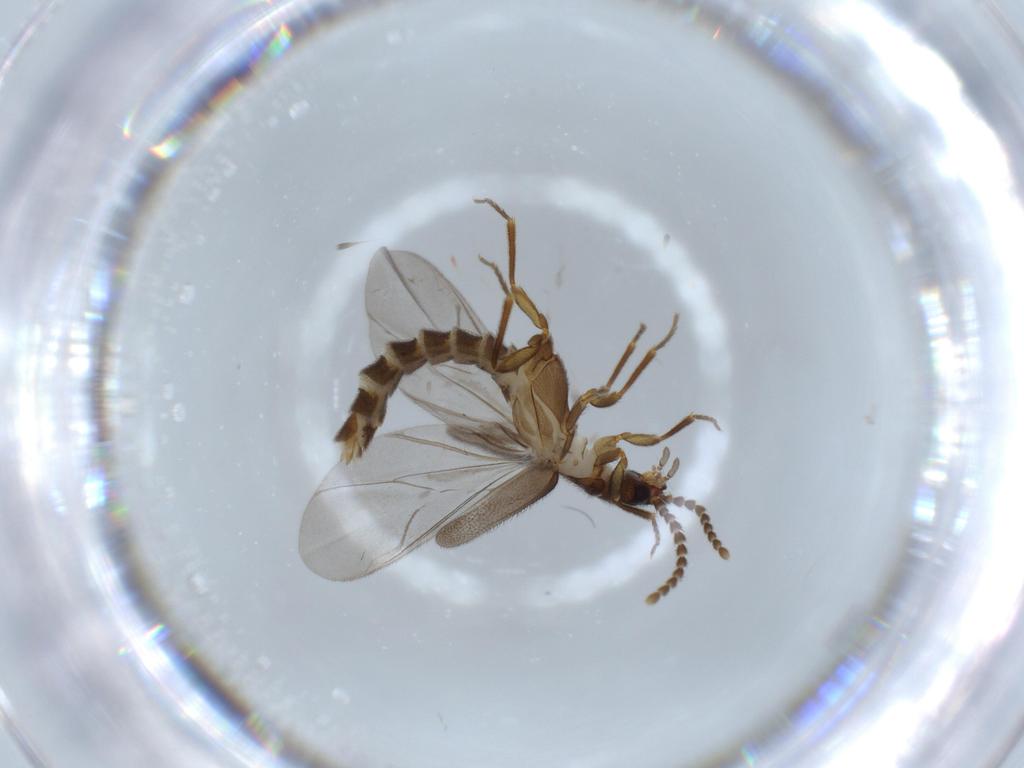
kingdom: Animalia
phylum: Arthropoda
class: Insecta
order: Coleoptera
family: Omethidae
